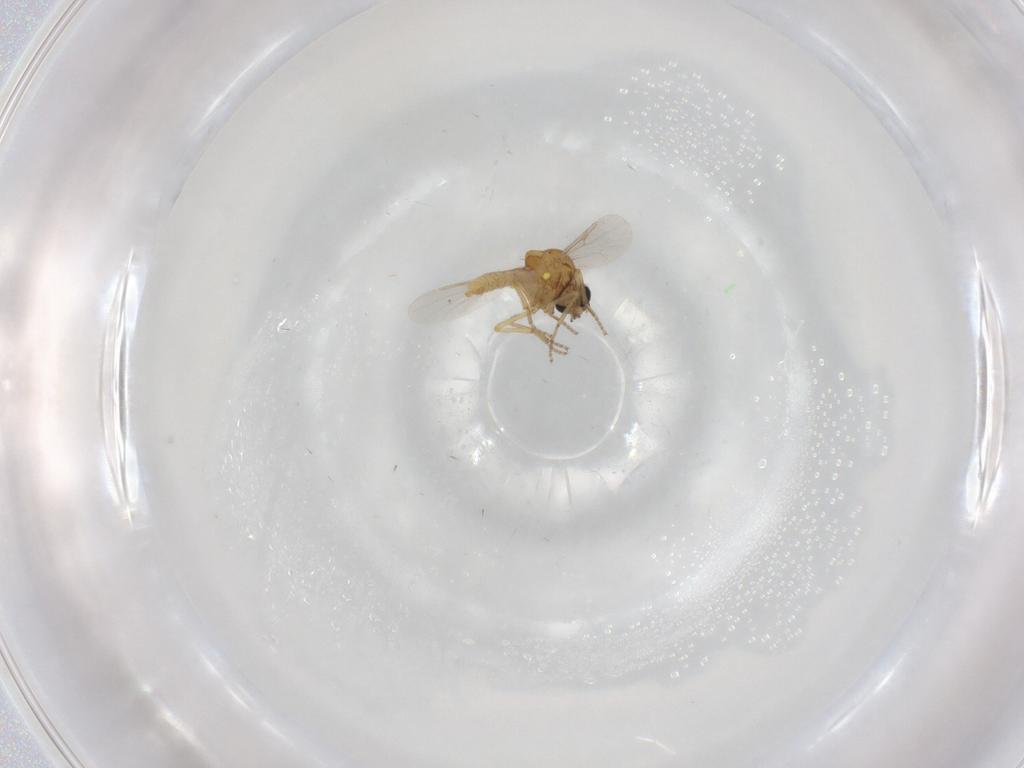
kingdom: Animalia
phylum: Arthropoda
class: Insecta
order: Diptera
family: Ceratopogonidae
